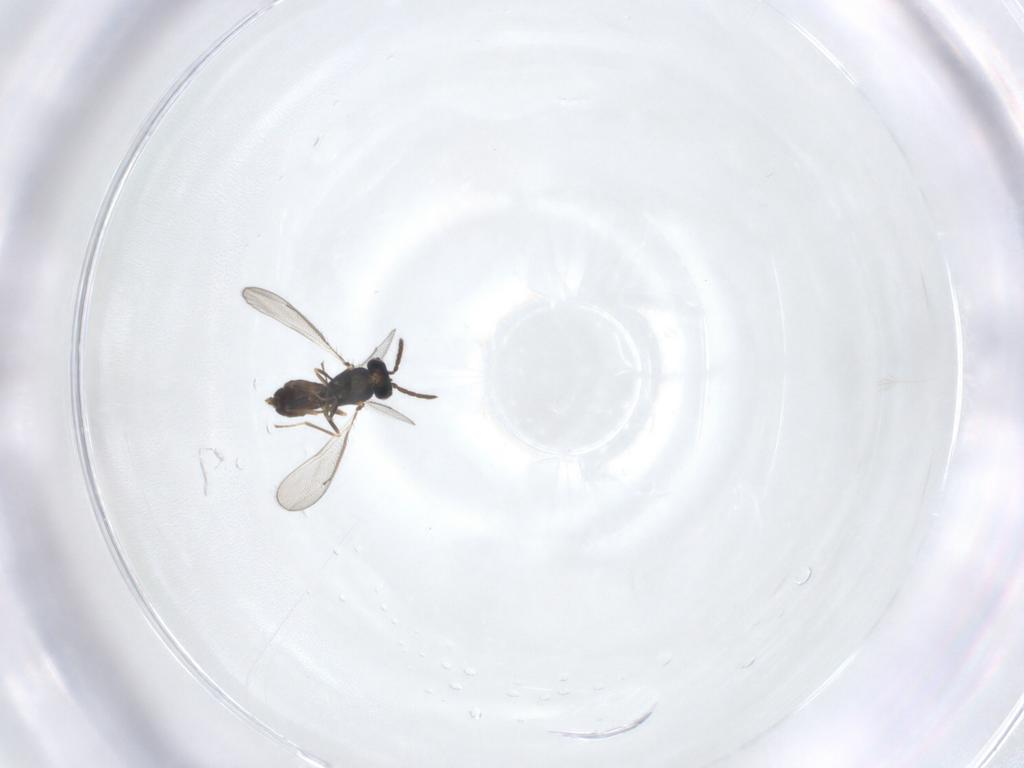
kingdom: Animalia
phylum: Arthropoda
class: Insecta
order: Hymenoptera
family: Eulophidae
